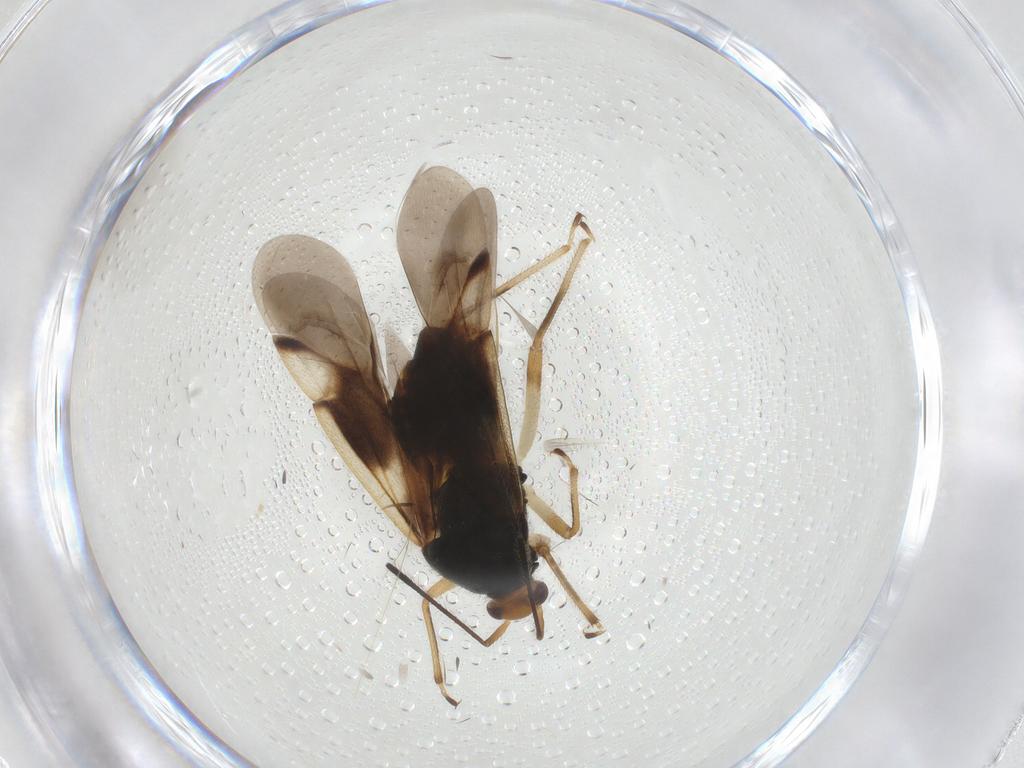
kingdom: Animalia
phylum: Arthropoda
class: Insecta
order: Hemiptera
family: Miridae
